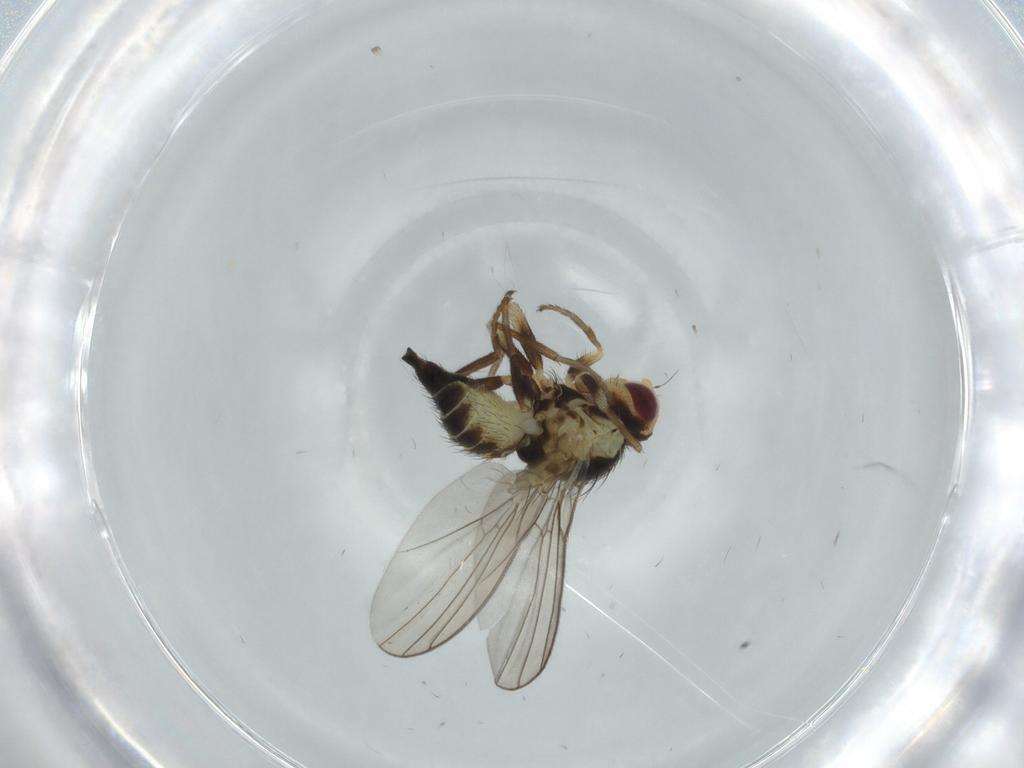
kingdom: Animalia
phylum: Arthropoda
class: Insecta
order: Diptera
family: Agromyzidae
